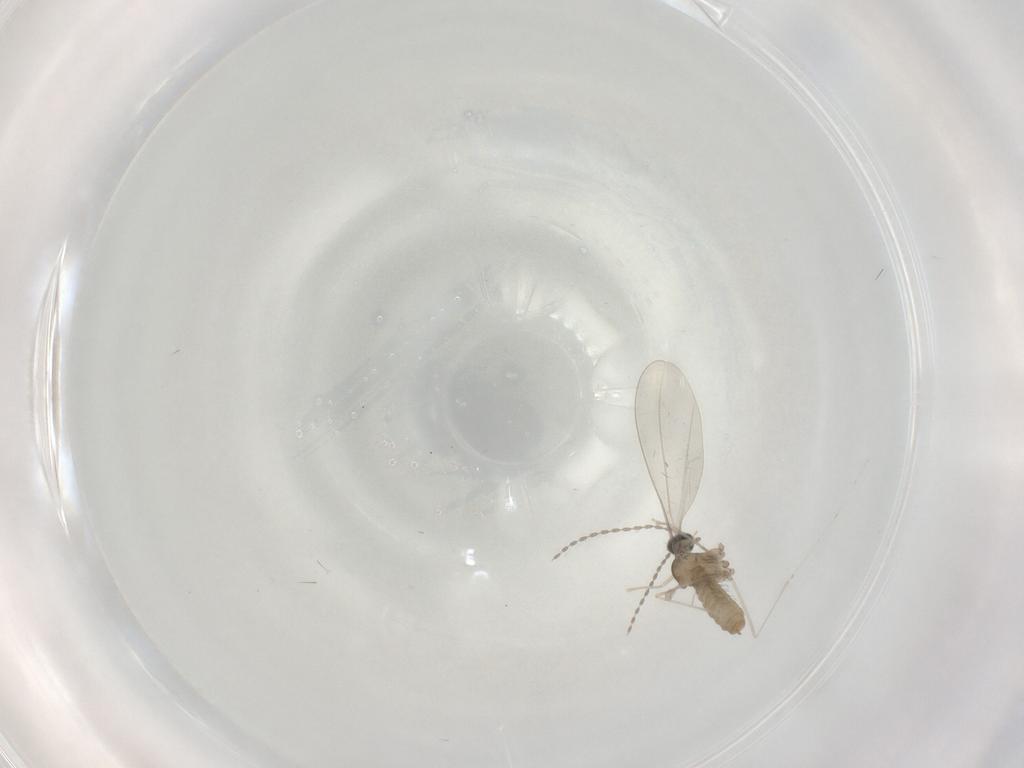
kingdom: Animalia
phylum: Arthropoda
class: Insecta
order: Diptera
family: Cecidomyiidae
